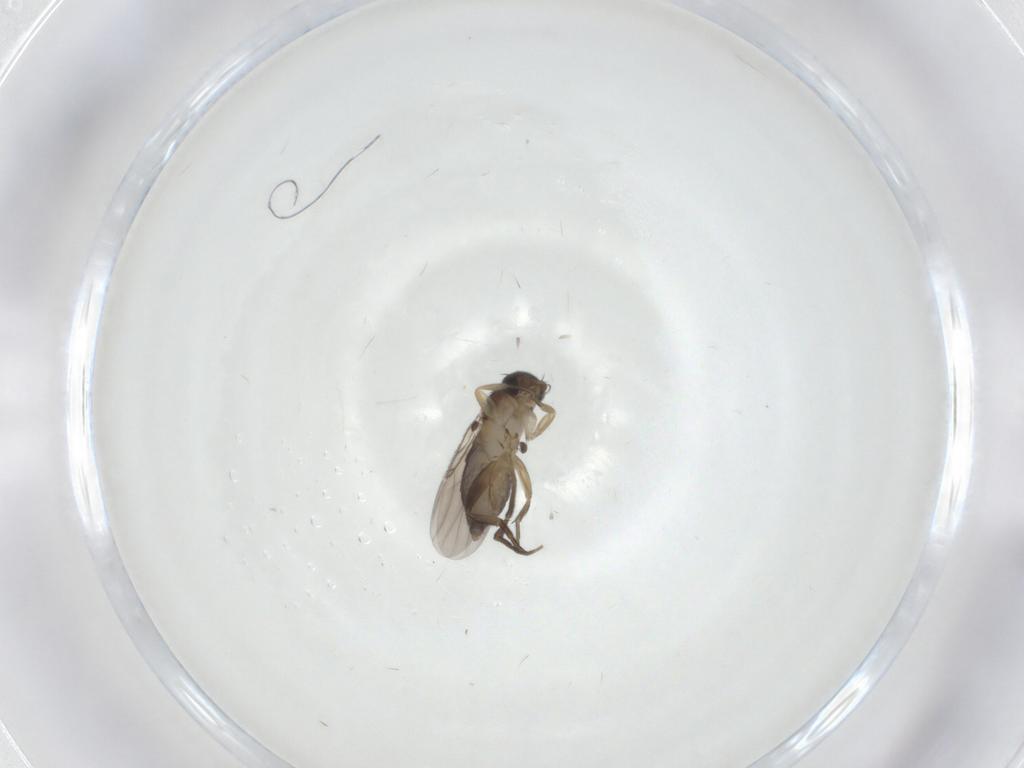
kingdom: Animalia
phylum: Arthropoda
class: Insecta
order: Diptera
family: Phoridae
